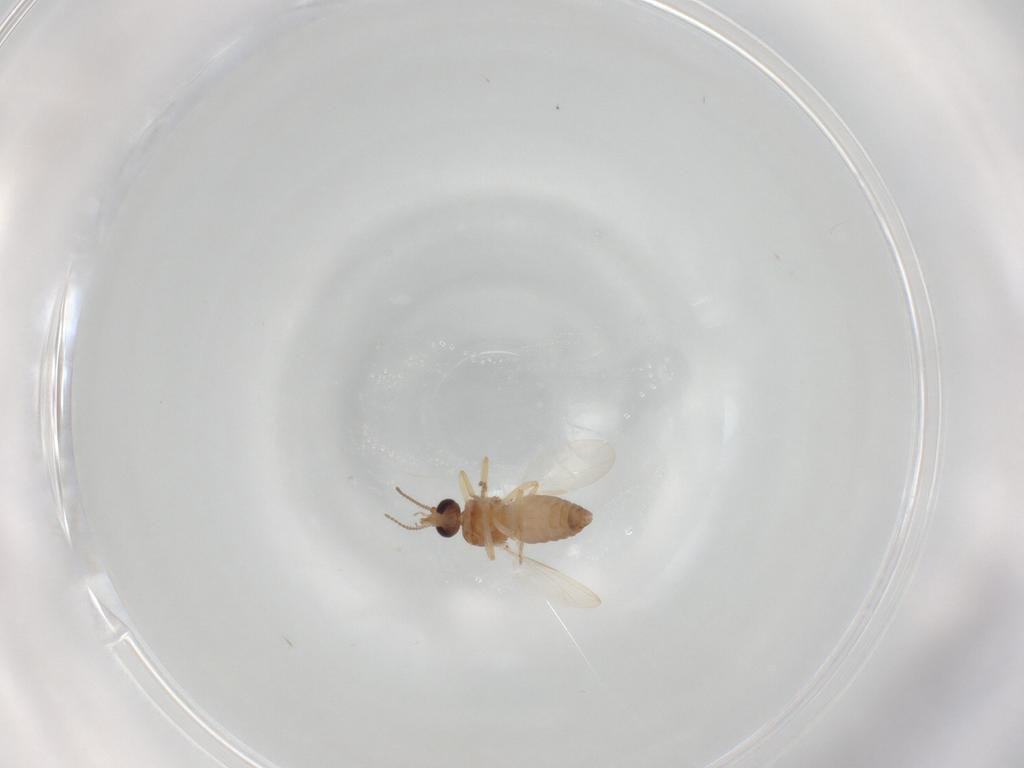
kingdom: Animalia
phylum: Arthropoda
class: Insecta
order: Diptera
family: Ceratopogonidae
